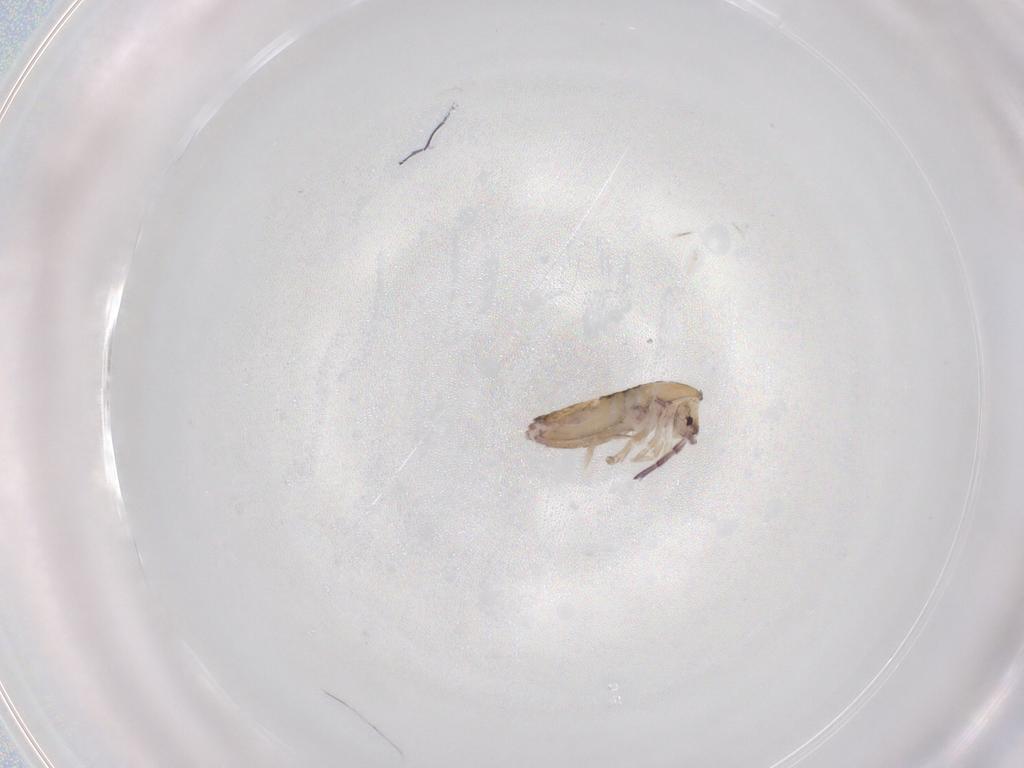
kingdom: Animalia
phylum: Arthropoda
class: Collembola
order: Entomobryomorpha
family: Entomobryidae
